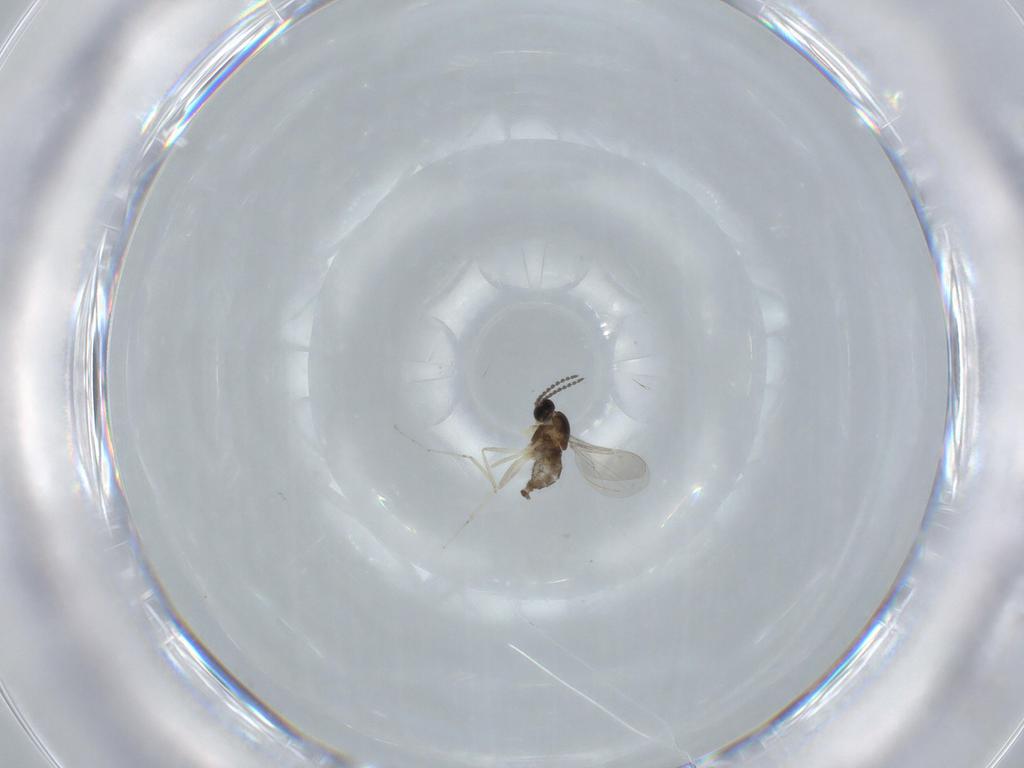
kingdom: Animalia
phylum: Arthropoda
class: Insecta
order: Diptera
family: Cecidomyiidae
